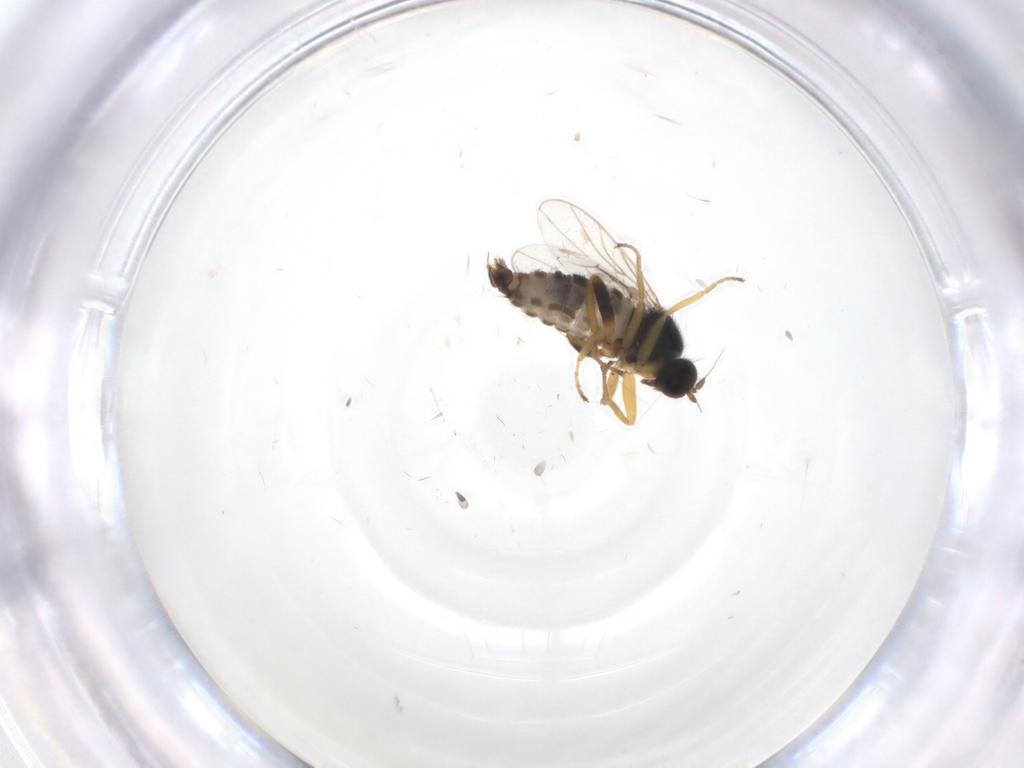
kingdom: Animalia
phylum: Arthropoda
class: Insecta
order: Diptera
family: Hybotidae
